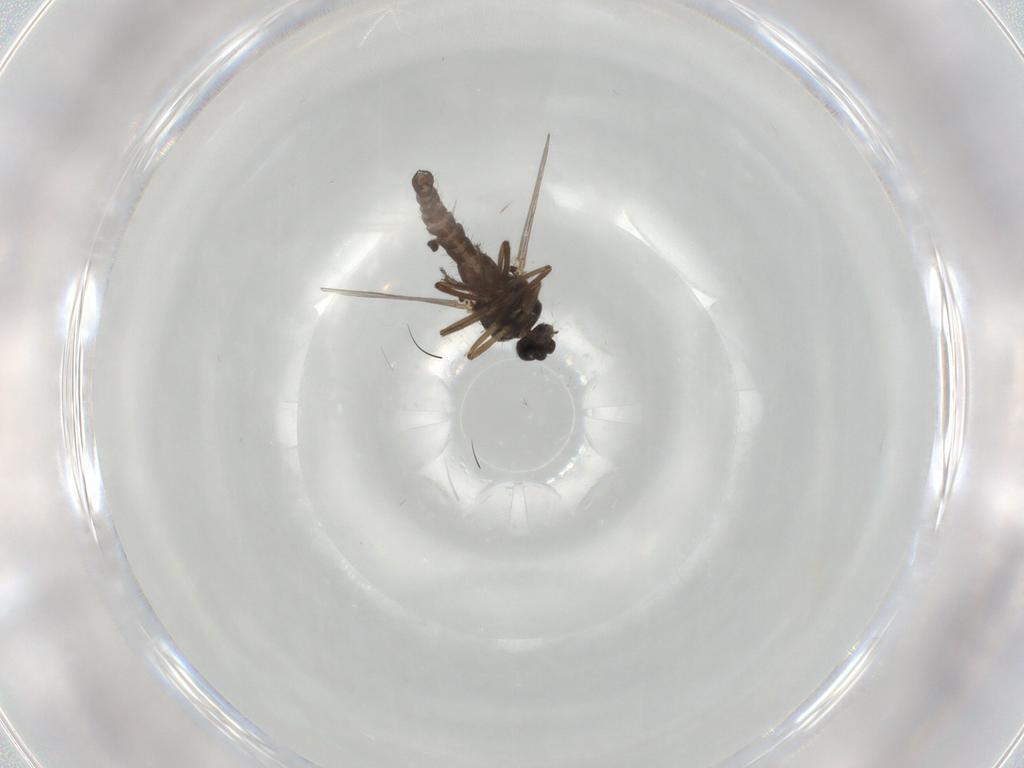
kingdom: Animalia
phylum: Arthropoda
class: Insecta
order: Diptera
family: Ceratopogonidae
